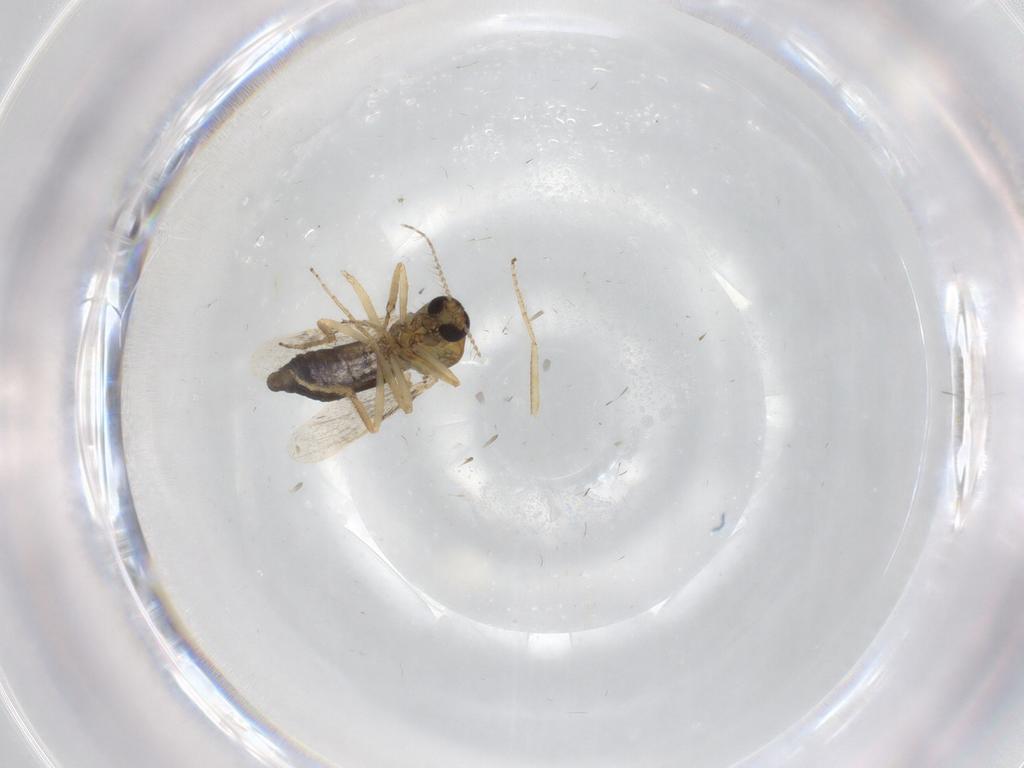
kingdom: Animalia
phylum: Arthropoda
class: Insecta
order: Diptera
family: Ceratopogonidae
